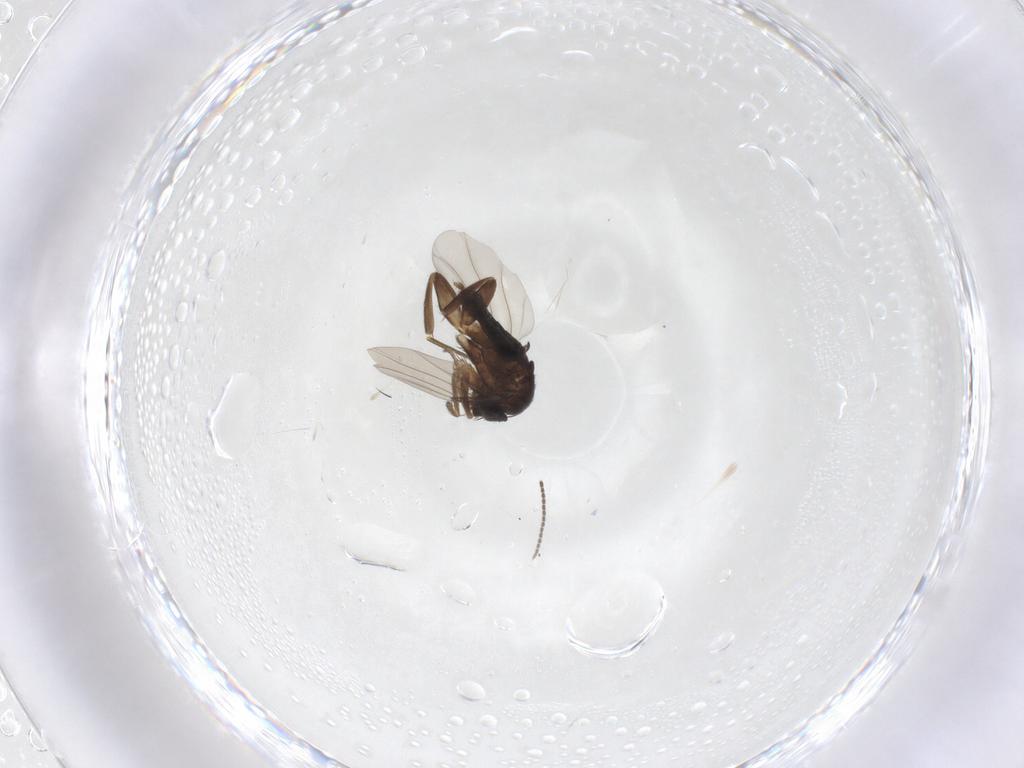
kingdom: Animalia
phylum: Arthropoda
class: Insecta
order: Diptera
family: Phoridae
